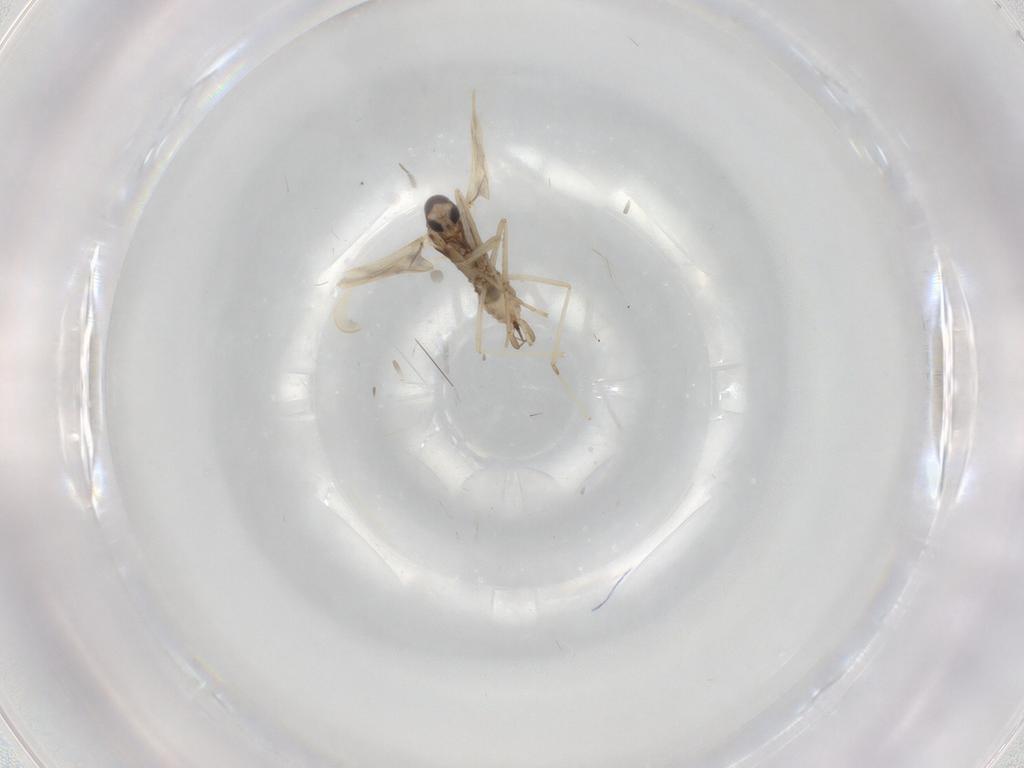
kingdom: Animalia
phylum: Arthropoda
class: Insecta
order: Diptera
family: Cecidomyiidae
